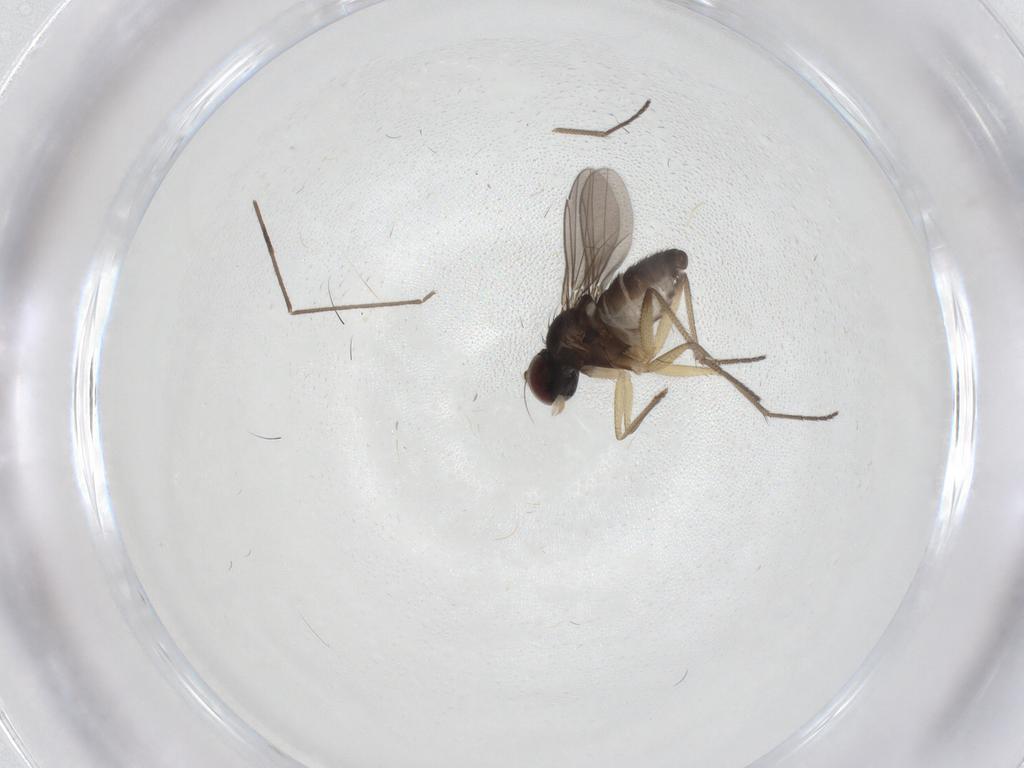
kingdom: Animalia
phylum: Arthropoda
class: Insecta
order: Diptera
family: Dolichopodidae
